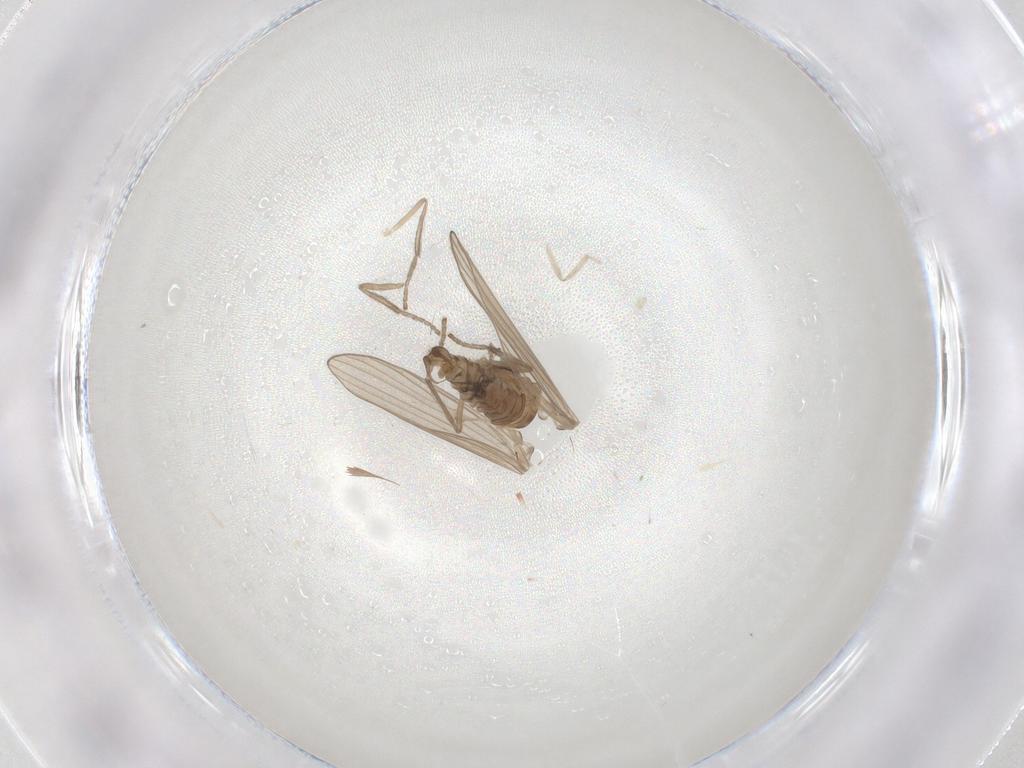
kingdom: Animalia
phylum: Arthropoda
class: Insecta
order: Diptera
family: Psychodidae
